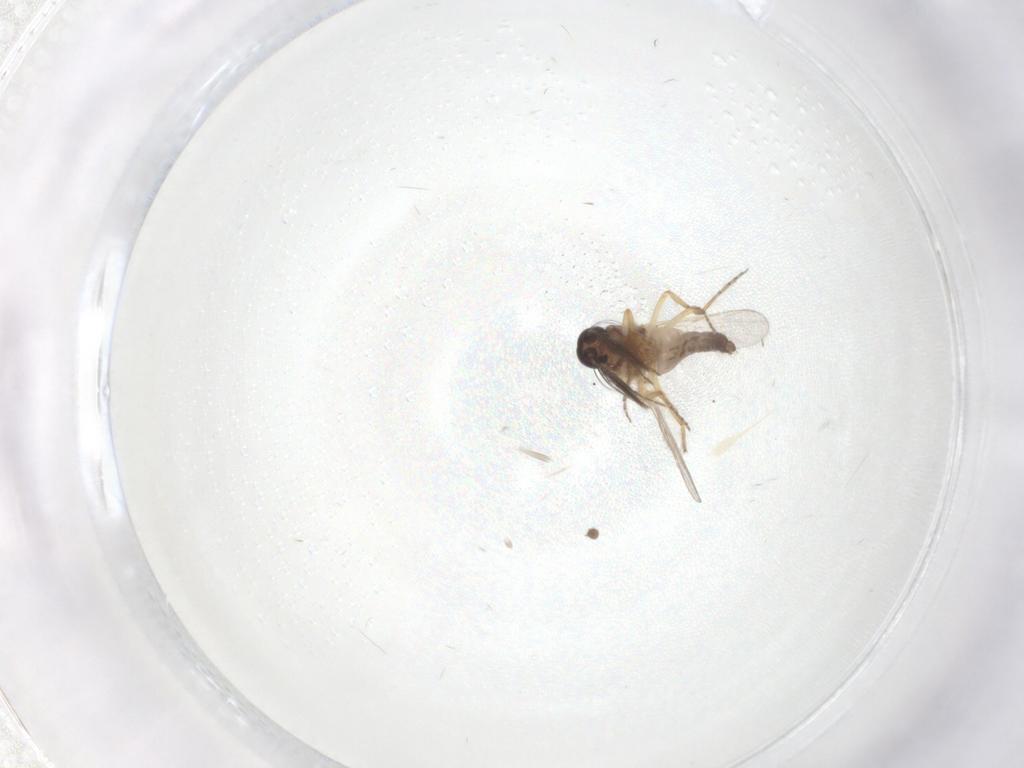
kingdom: Animalia
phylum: Arthropoda
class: Insecta
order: Diptera
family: Ceratopogonidae
